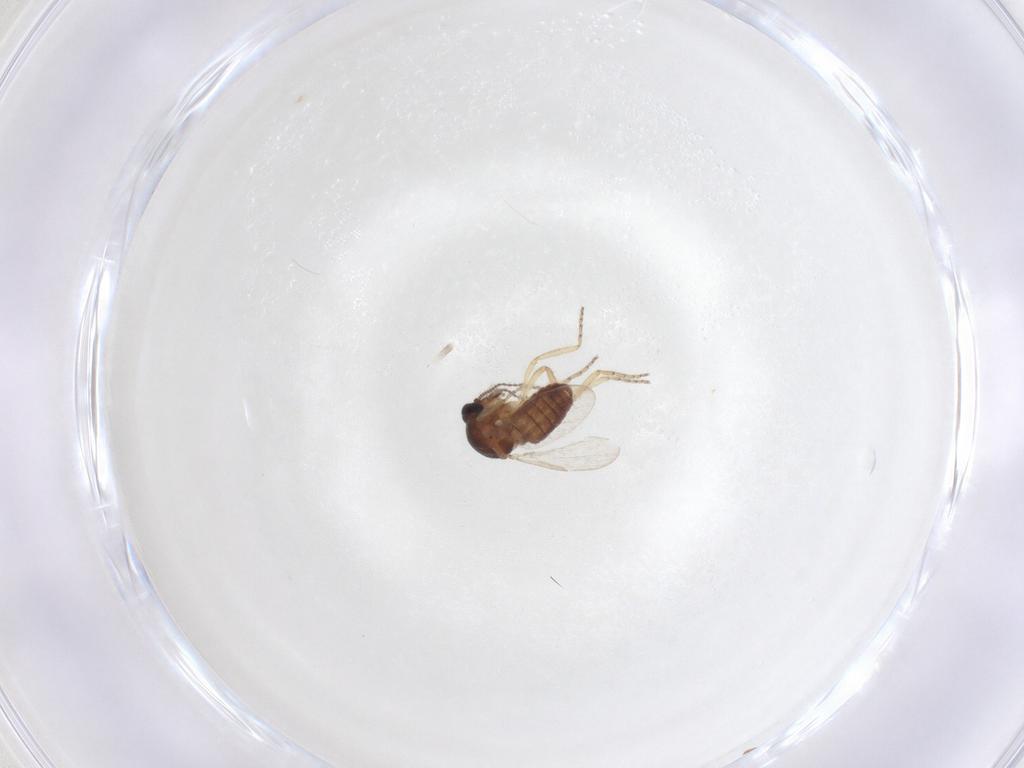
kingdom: Animalia
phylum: Arthropoda
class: Insecta
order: Diptera
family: Ceratopogonidae
